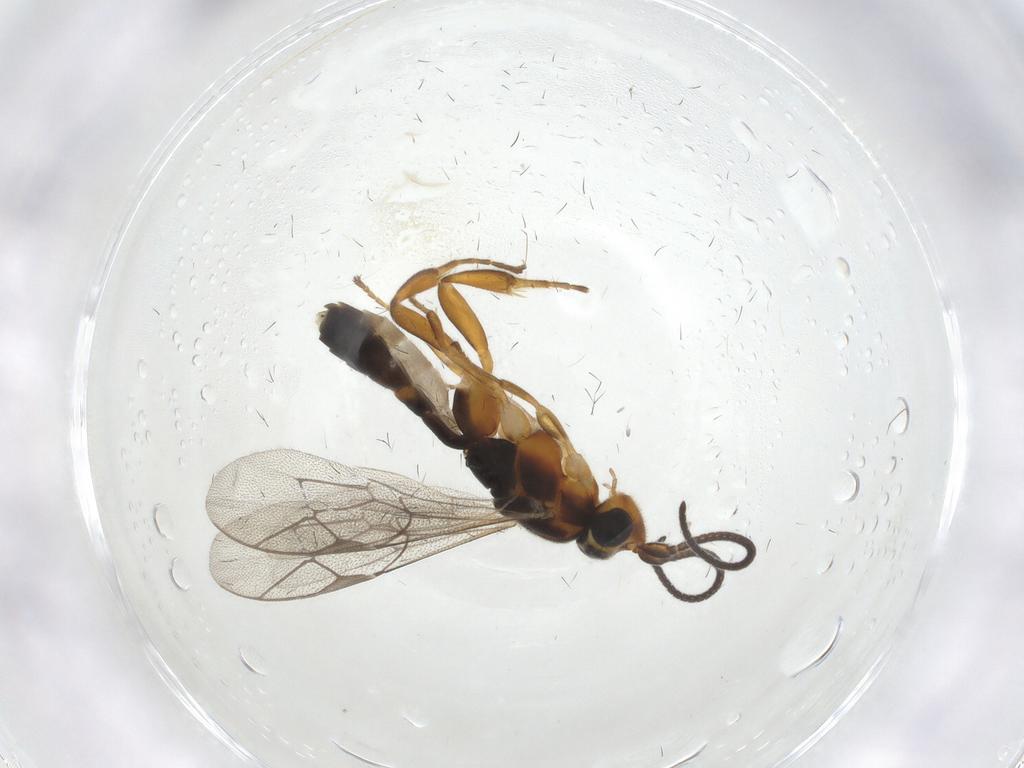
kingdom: Animalia
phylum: Arthropoda
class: Insecta
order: Hymenoptera
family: Ichneumonidae
